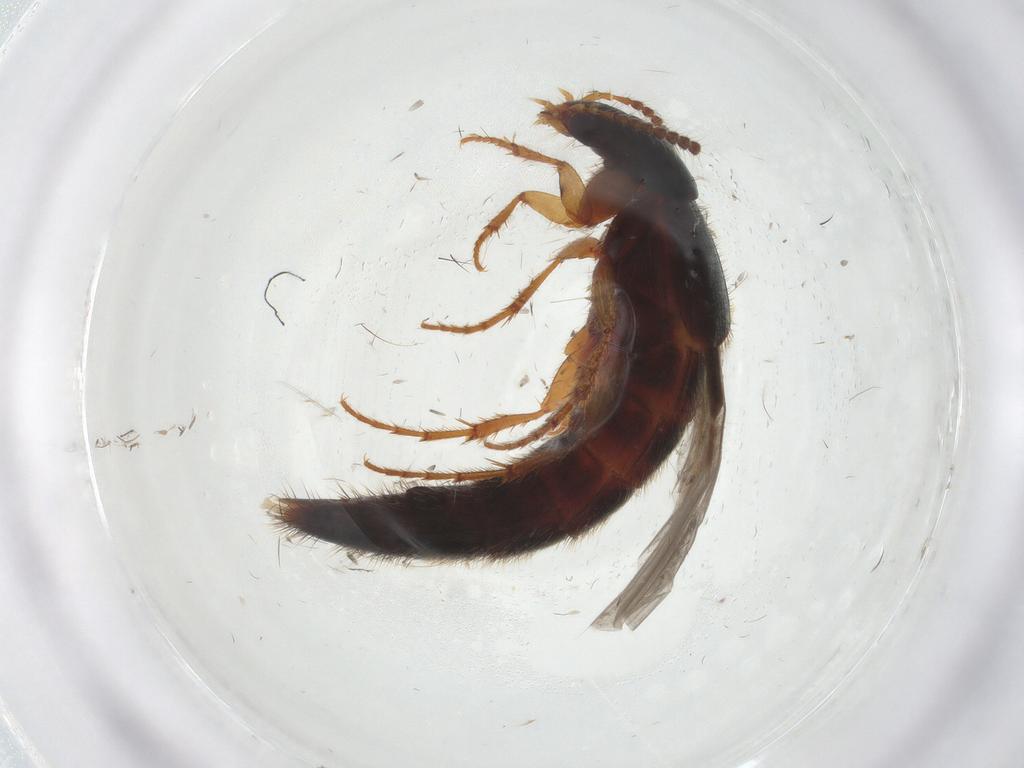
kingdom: Animalia
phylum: Arthropoda
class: Insecta
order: Coleoptera
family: Staphylinidae
